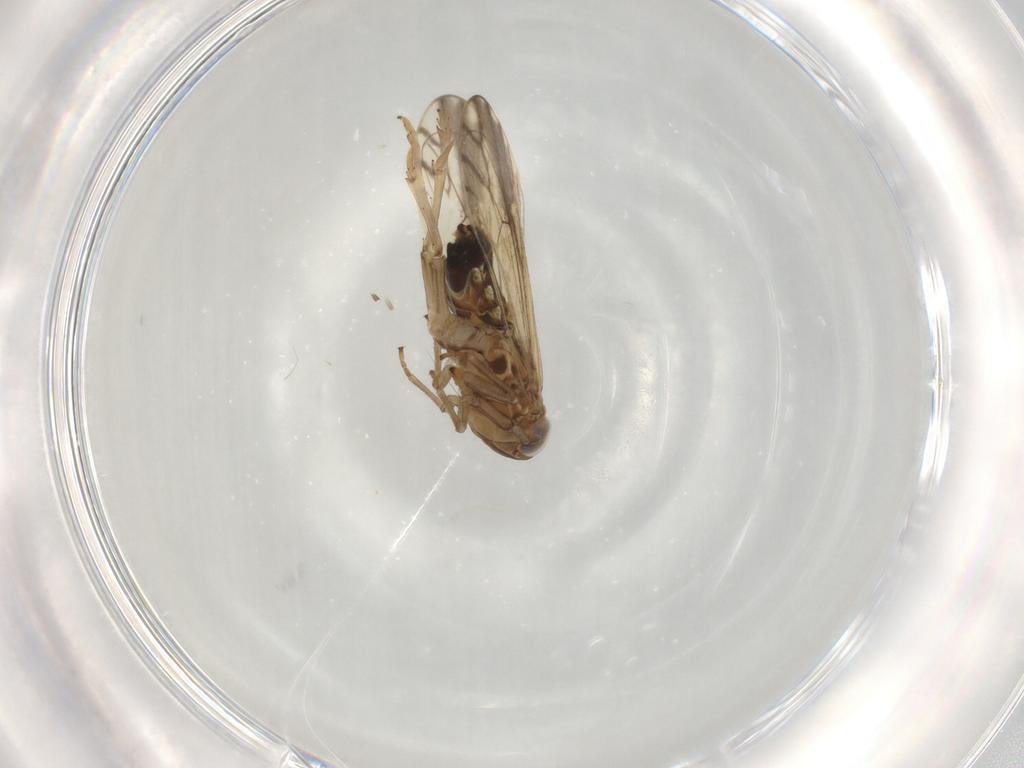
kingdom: Animalia
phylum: Arthropoda
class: Insecta
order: Hemiptera
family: Delphacidae
